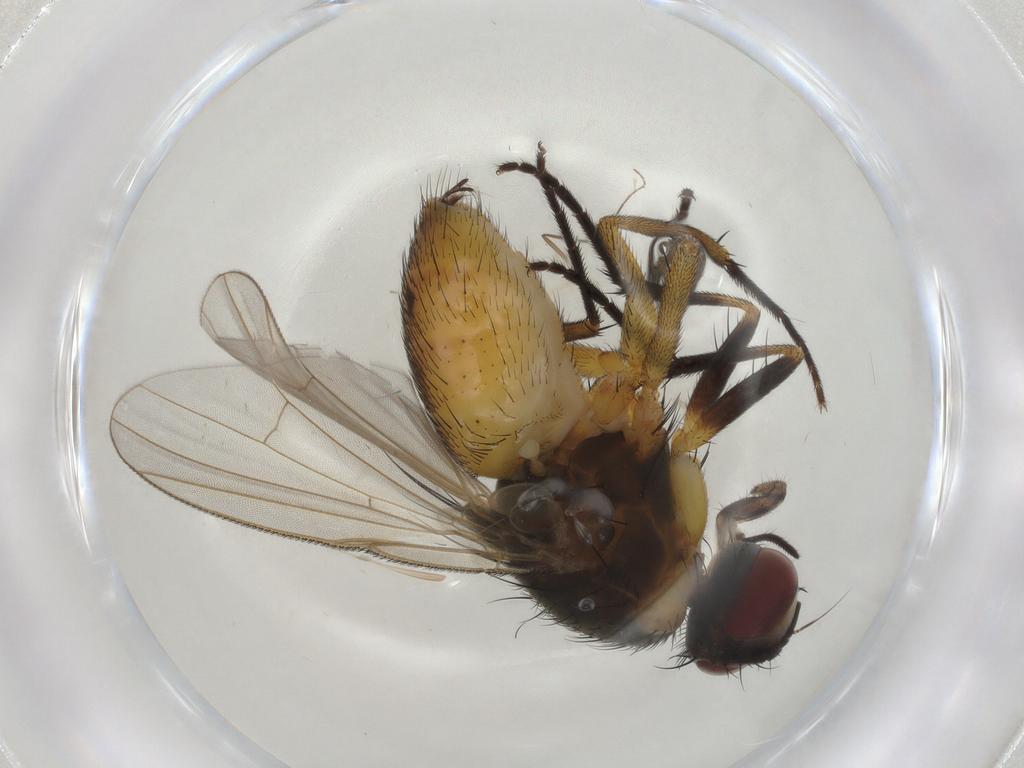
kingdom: Animalia
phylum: Arthropoda
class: Insecta
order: Diptera
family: Muscidae
